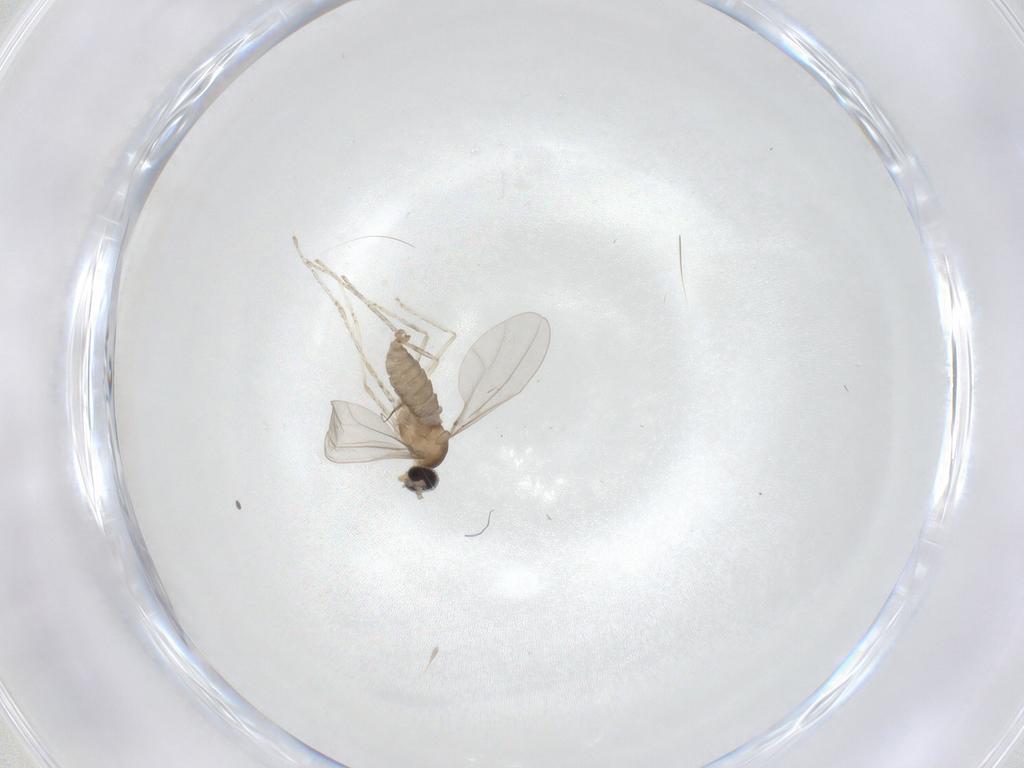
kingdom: Animalia
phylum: Arthropoda
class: Insecta
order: Diptera
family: Cecidomyiidae
